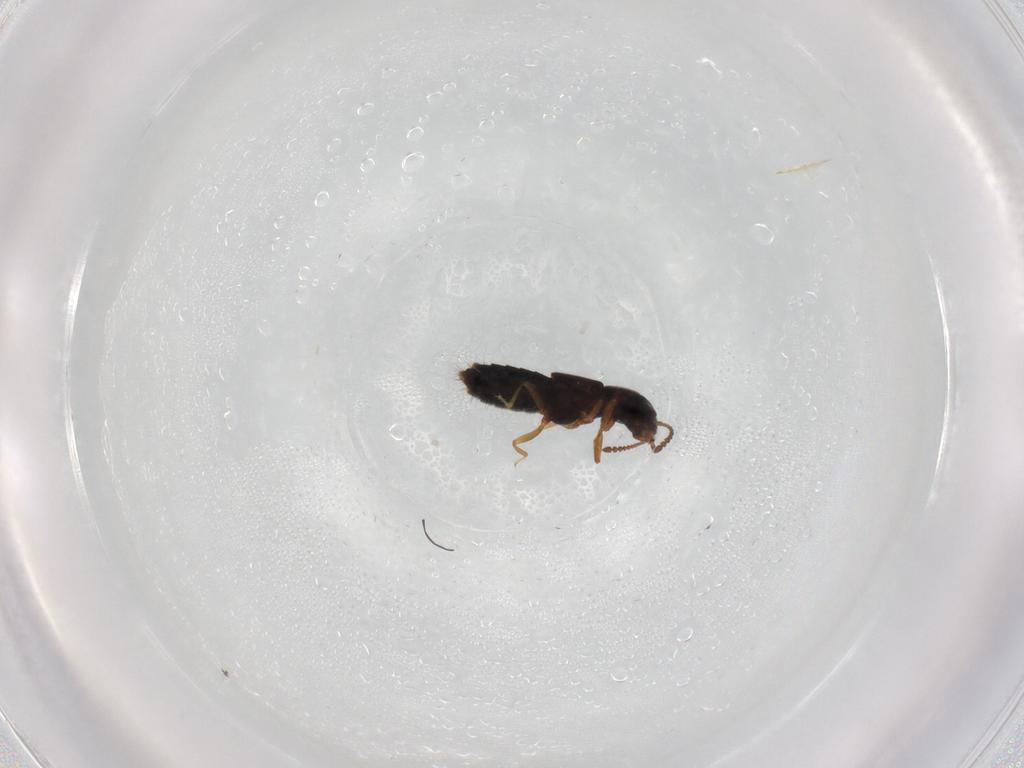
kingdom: Animalia
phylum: Arthropoda
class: Insecta
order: Coleoptera
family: Staphylinidae
